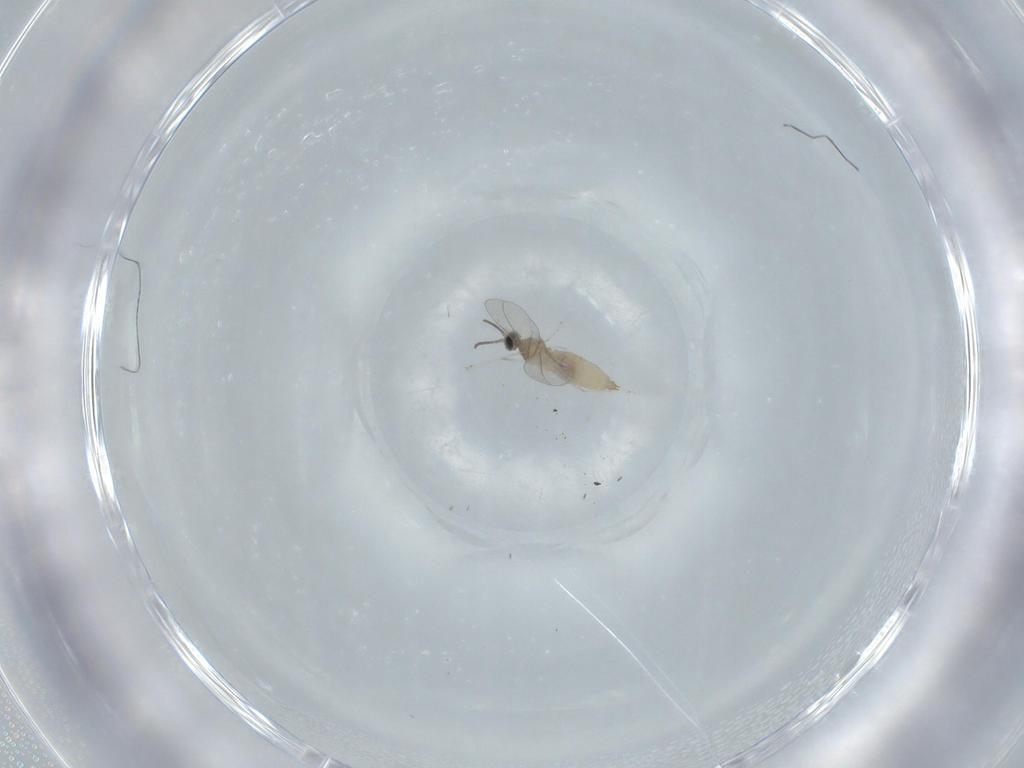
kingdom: Animalia
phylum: Arthropoda
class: Insecta
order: Diptera
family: Cecidomyiidae
